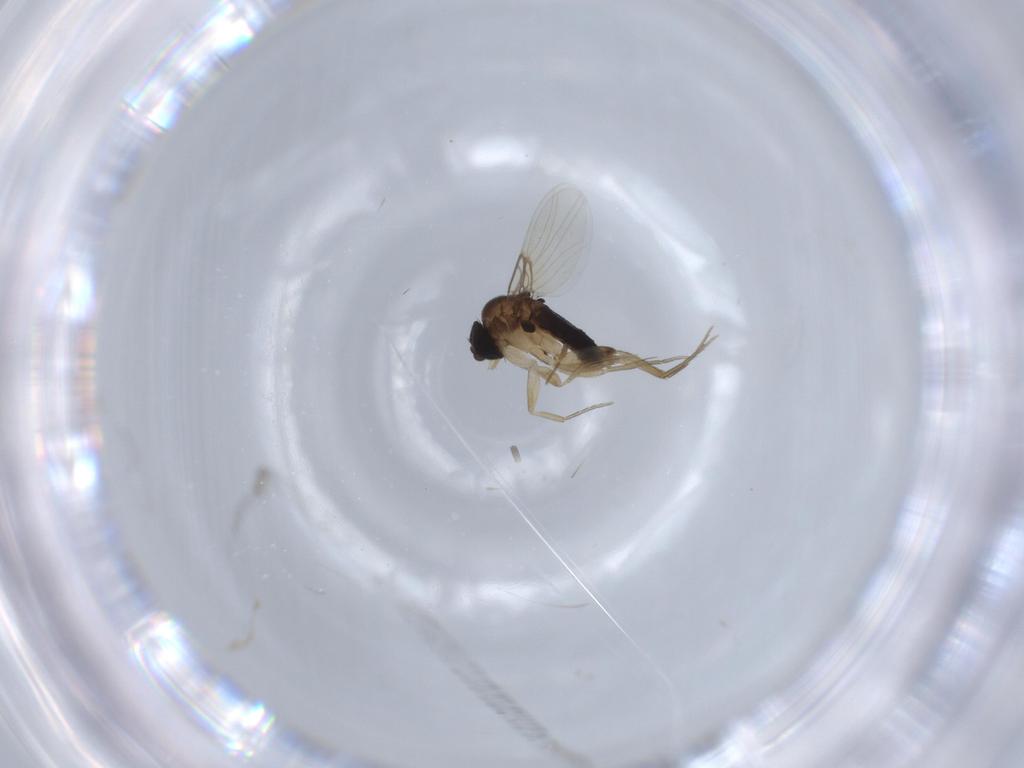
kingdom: Animalia
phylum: Arthropoda
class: Insecta
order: Diptera
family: Phoridae
